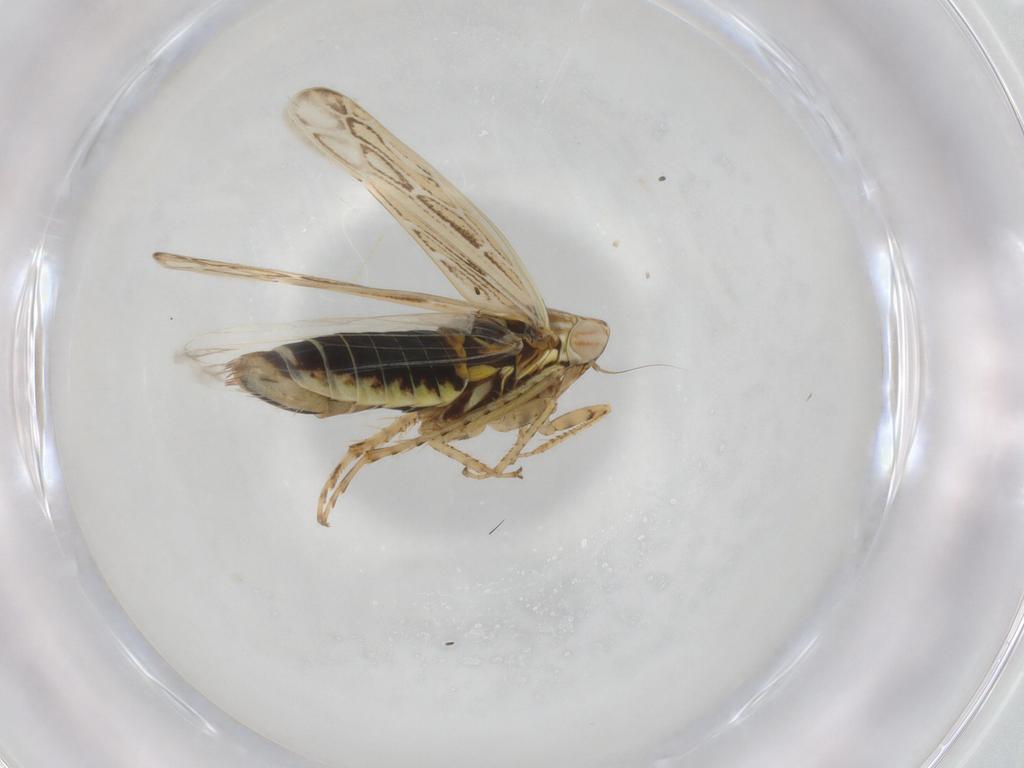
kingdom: Animalia
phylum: Arthropoda
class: Insecta
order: Hemiptera
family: Cicadellidae
